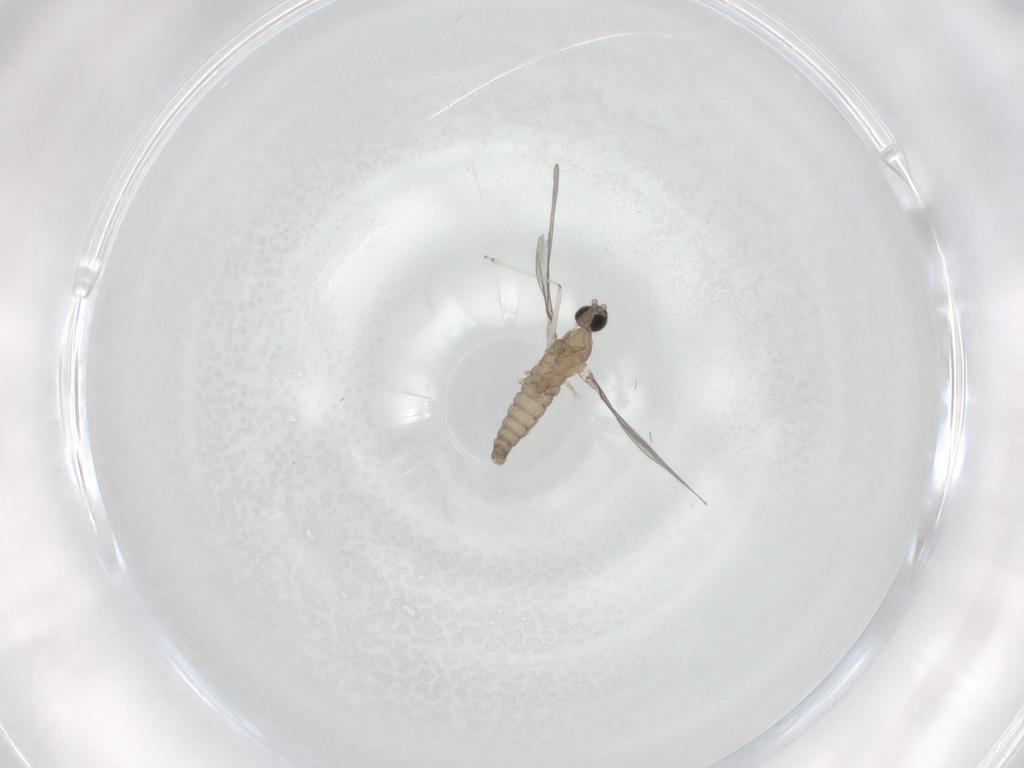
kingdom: Animalia
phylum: Arthropoda
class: Insecta
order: Diptera
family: Cecidomyiidae
